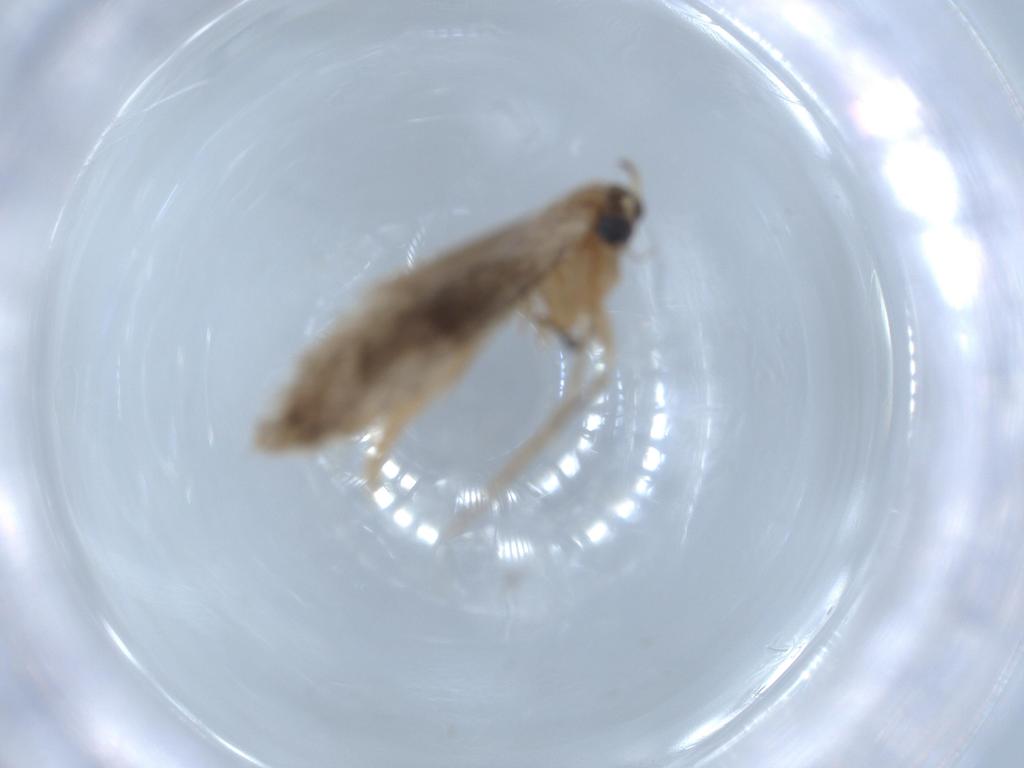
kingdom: Animalia
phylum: Arthropoda
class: Insecta
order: Lepidoptera
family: Tineidae
